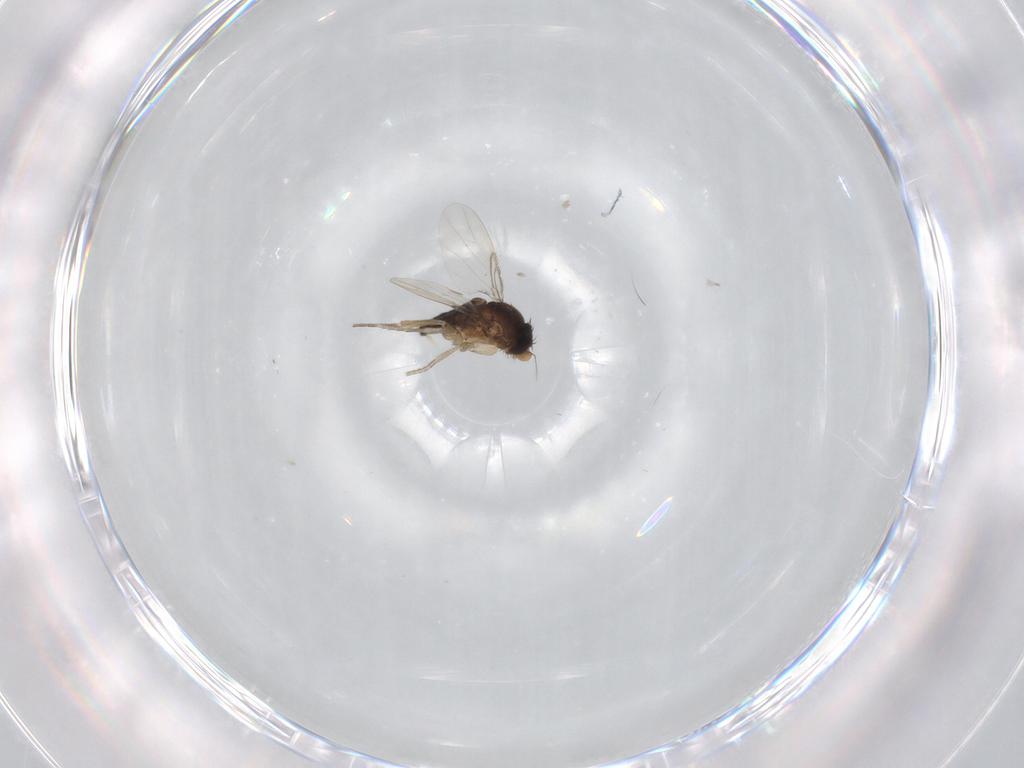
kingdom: Animalia
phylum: Arthropoda
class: Insecta
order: Diptera
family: Phoridae
